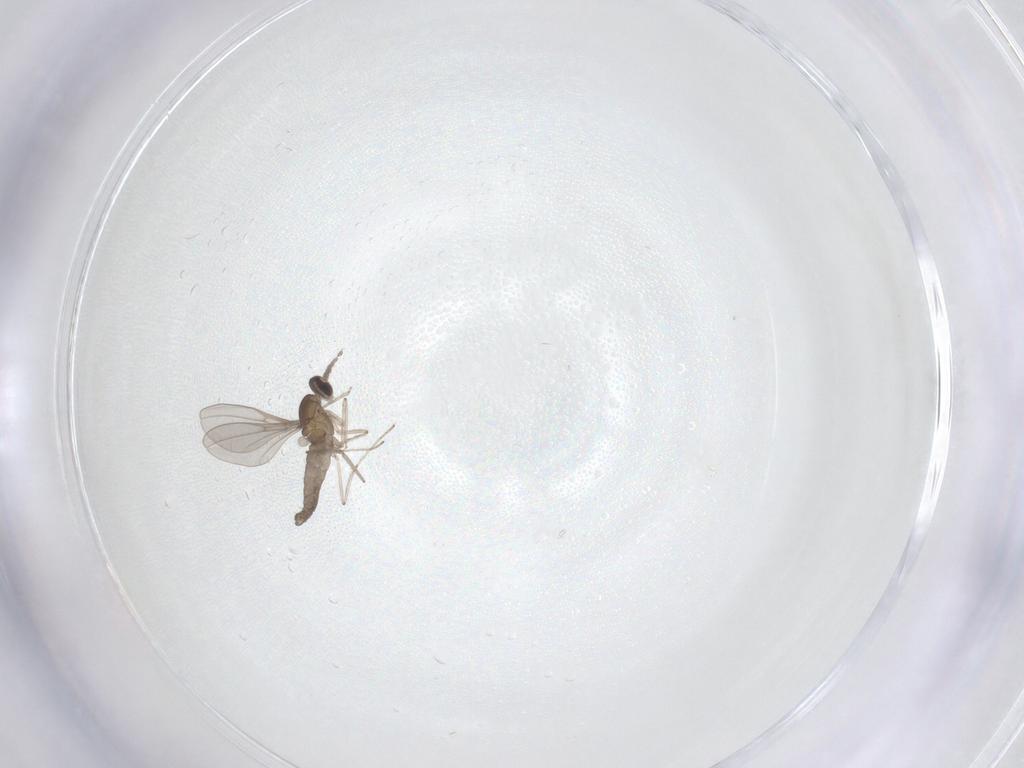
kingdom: Animalia
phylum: Arthropoda
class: Insecta
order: Diptera
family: Cecidomyiidae
